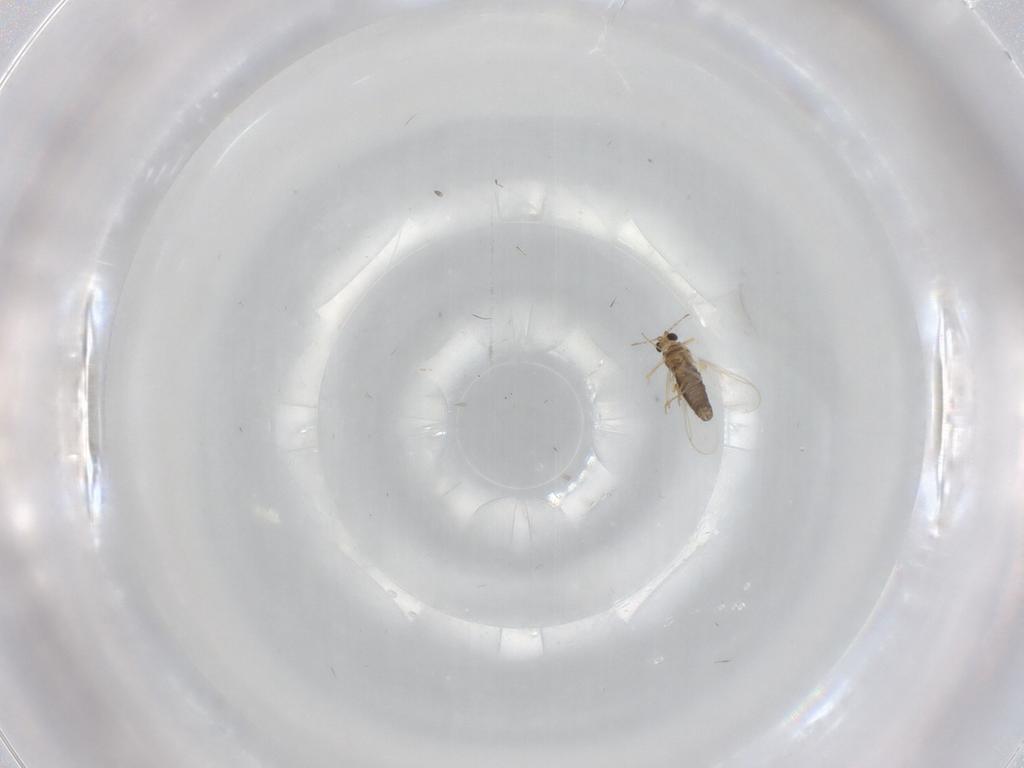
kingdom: Animalia
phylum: Arthropoda
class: Insecta
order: Diptera
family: Chironomidae
